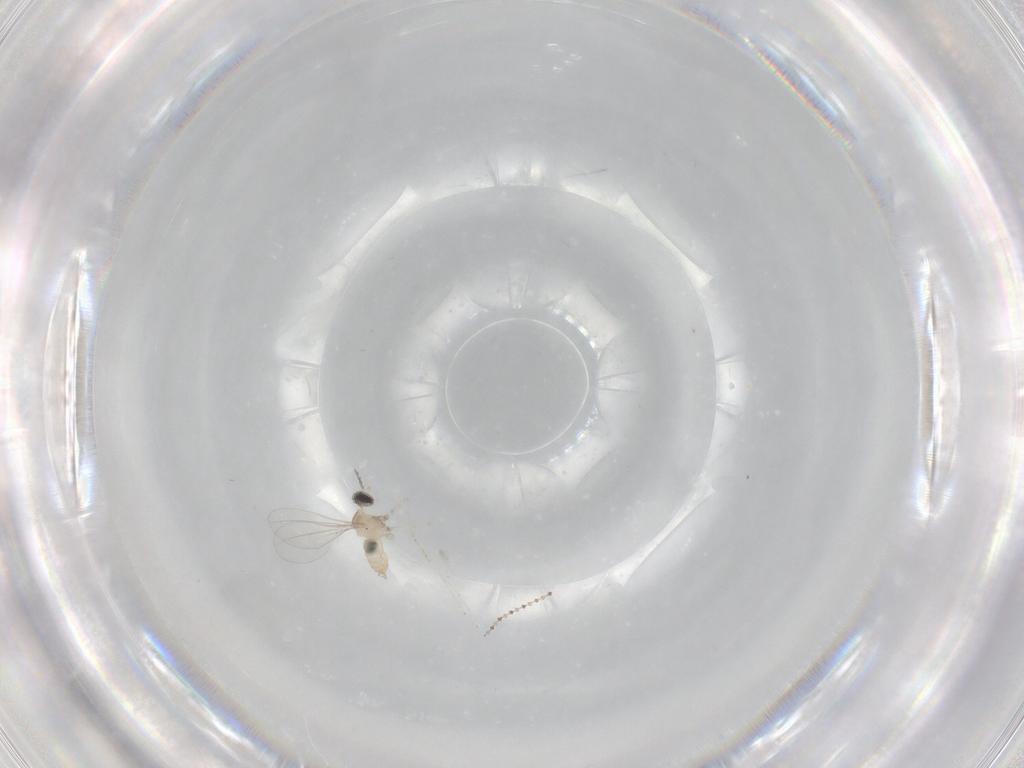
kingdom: Animalia
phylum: Arthropoda
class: Insecta
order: Diptera
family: Cecidomyiidae
